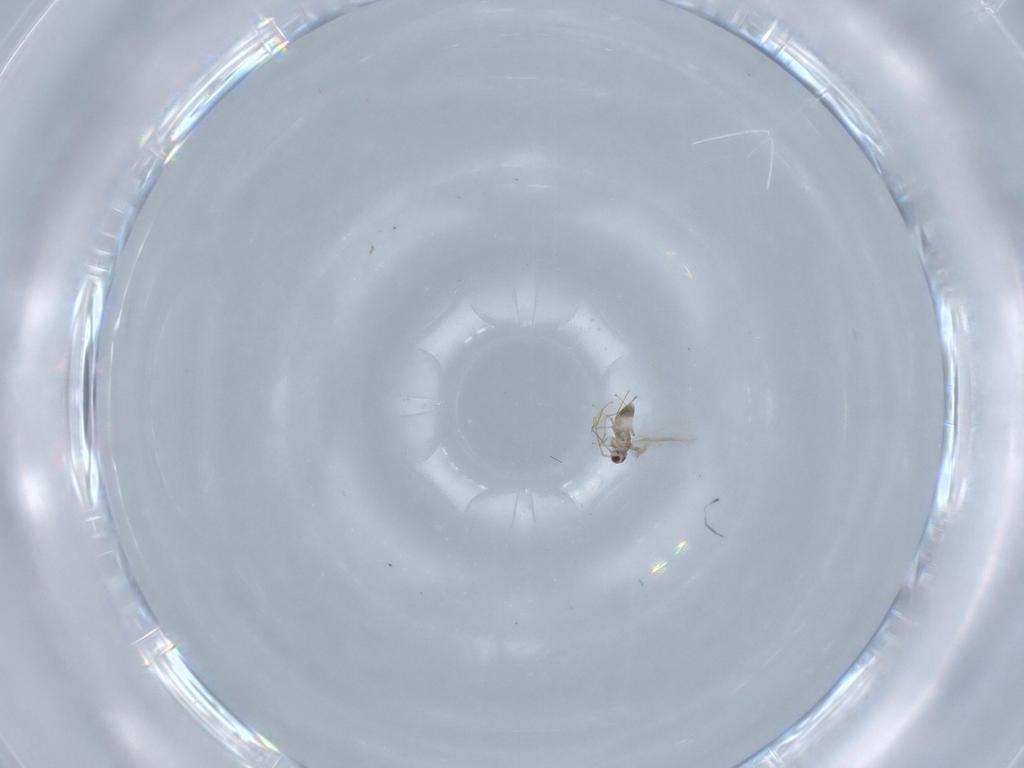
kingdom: Animalia
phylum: Arthropoda
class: Insecta
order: Hymenoptera
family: Mymaridae
